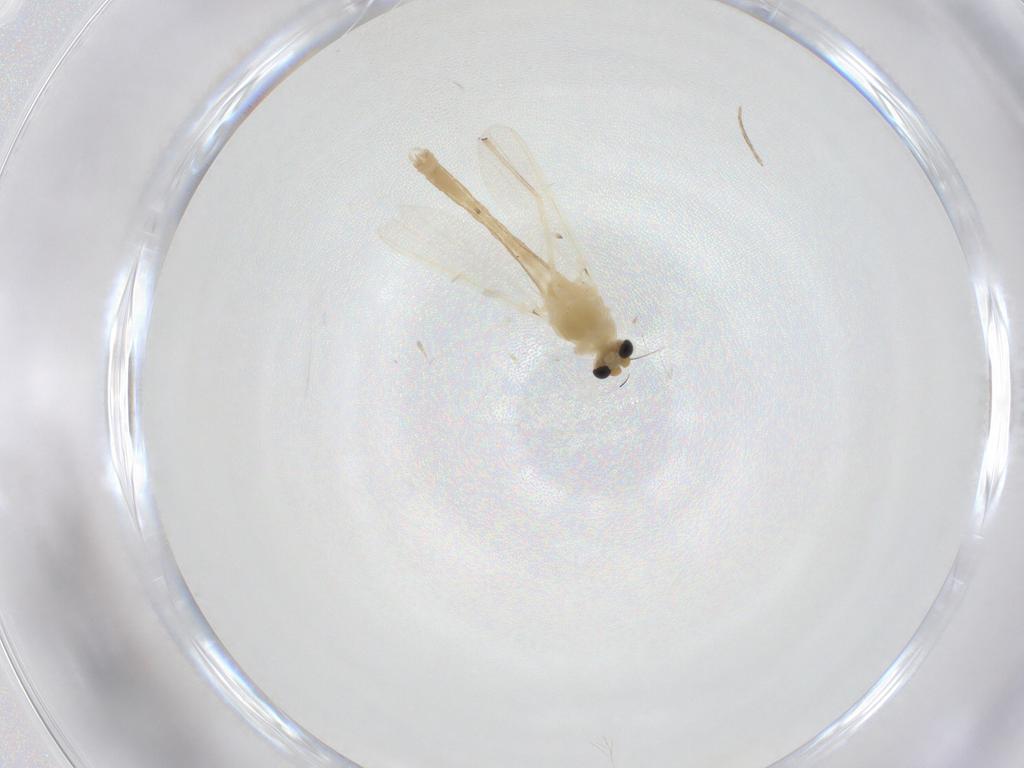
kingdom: Animalia
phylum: Arthropoda
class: Insecta
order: Diptera
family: Chironomidae
